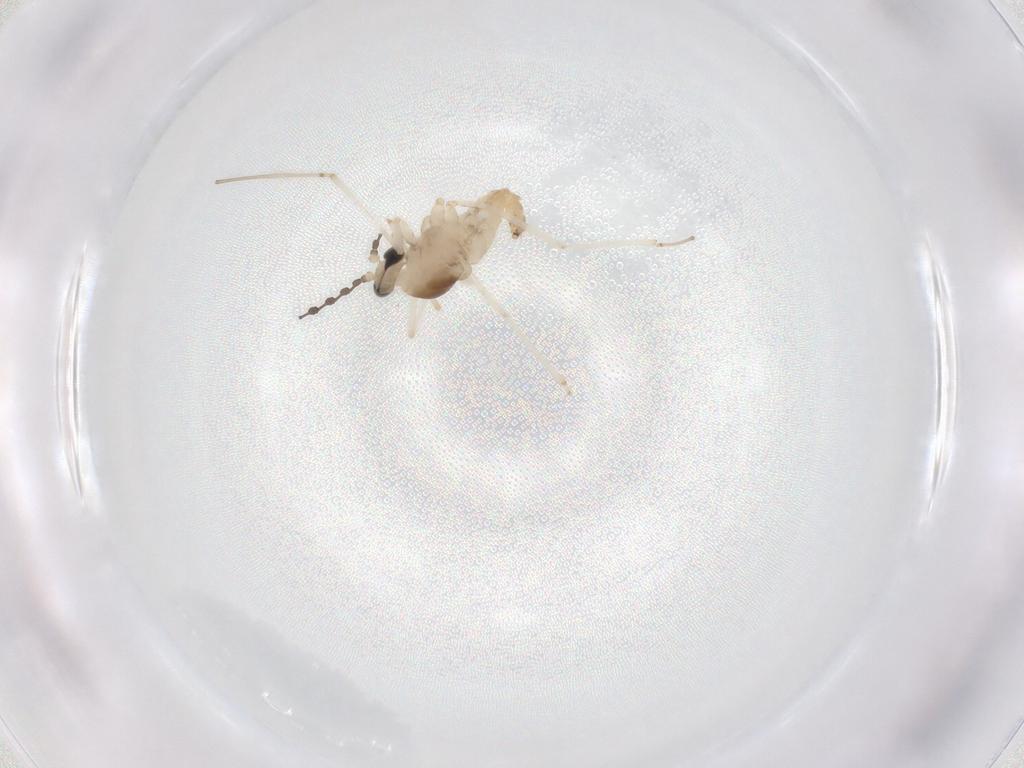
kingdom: Animalia
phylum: Arthropoda
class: Insecta
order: Diptera
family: Cecidomyiidae
